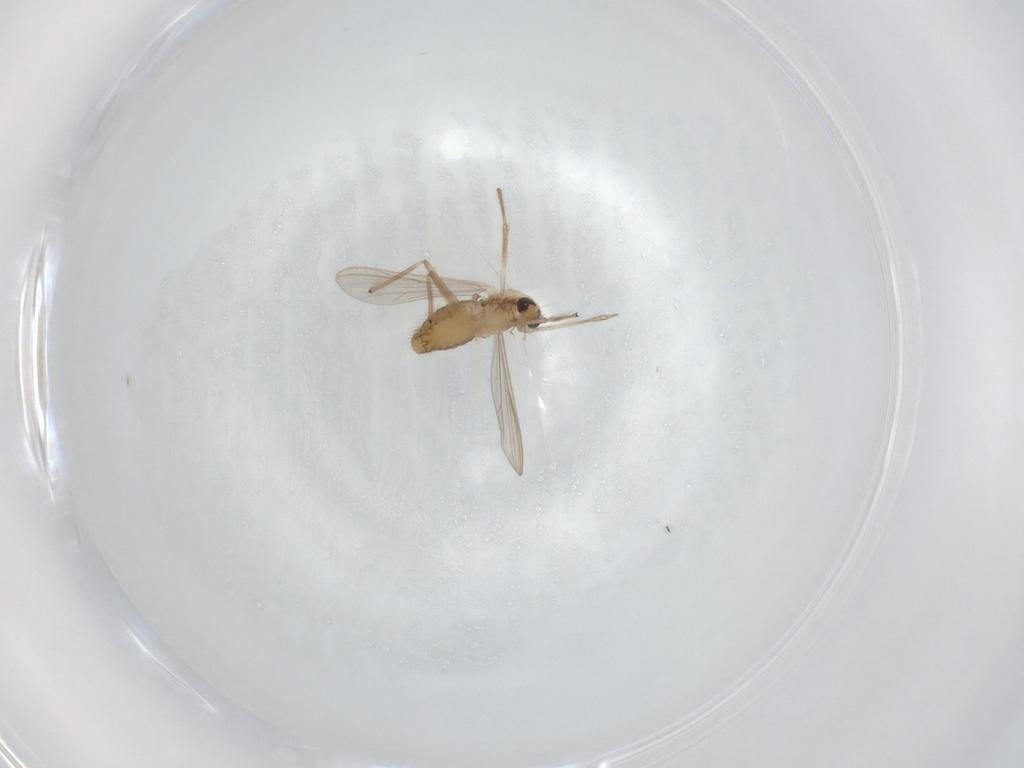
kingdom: Animalia
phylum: Arthropoda
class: Insecta
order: Diptera
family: Chironomidae
